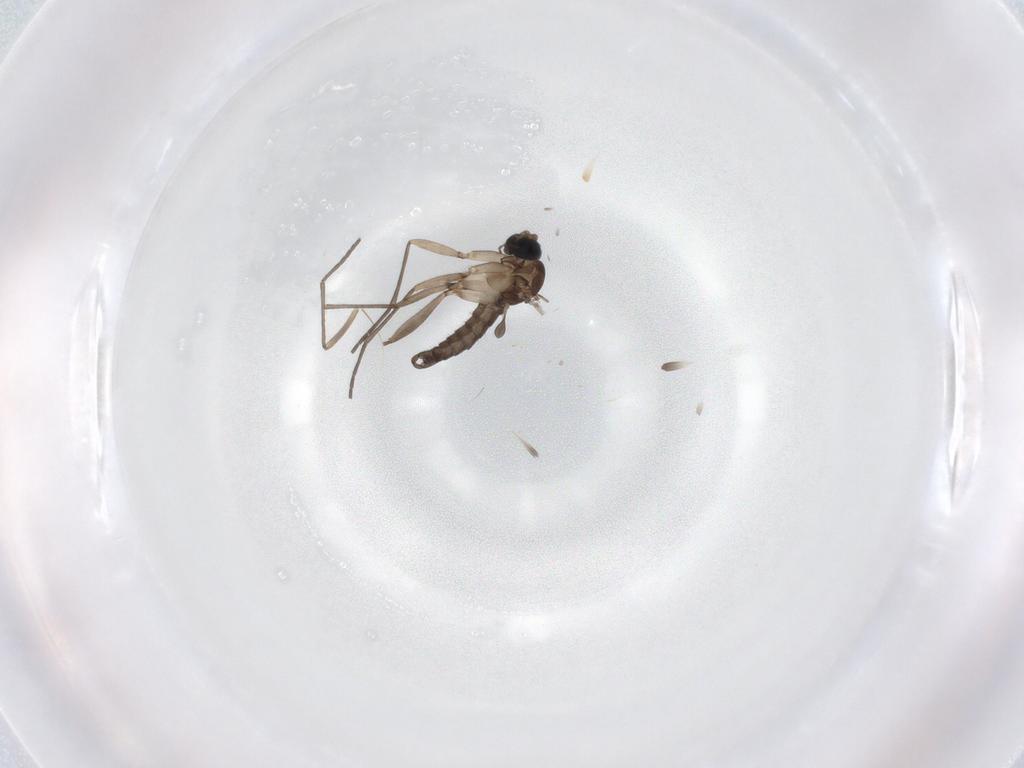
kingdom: Animalia
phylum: Arthropoda
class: Insecta
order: Diptera
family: Sciaridae
